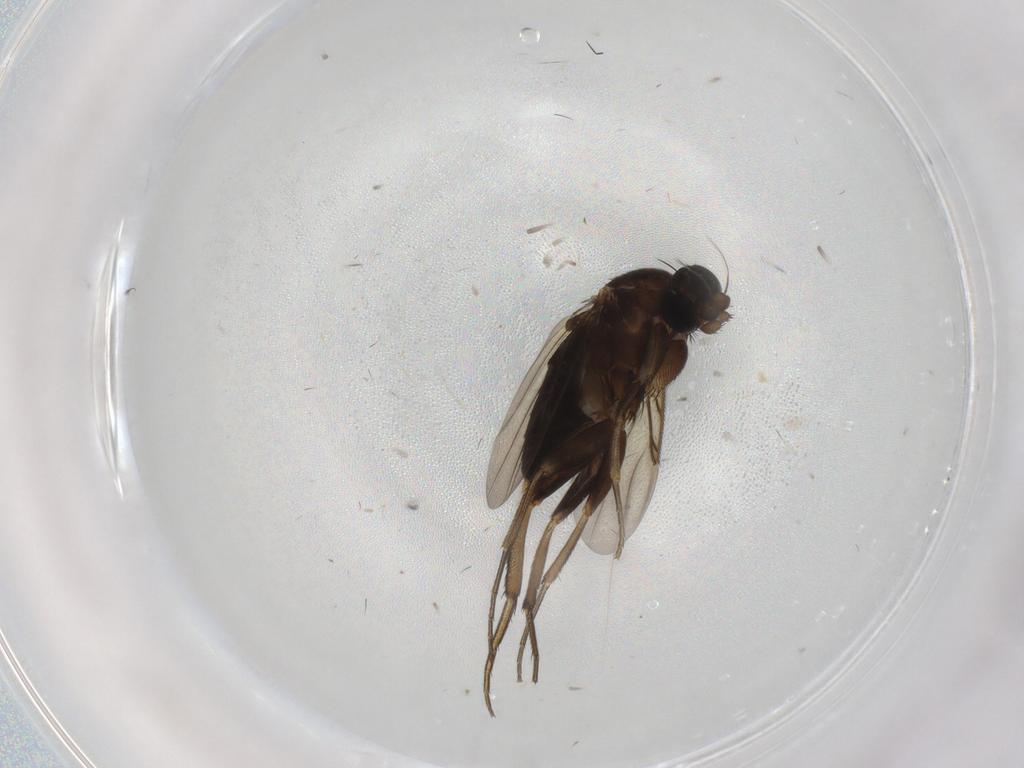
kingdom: Animalia
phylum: Arthropoda
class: Insecta
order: Diptera
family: Phoridae
